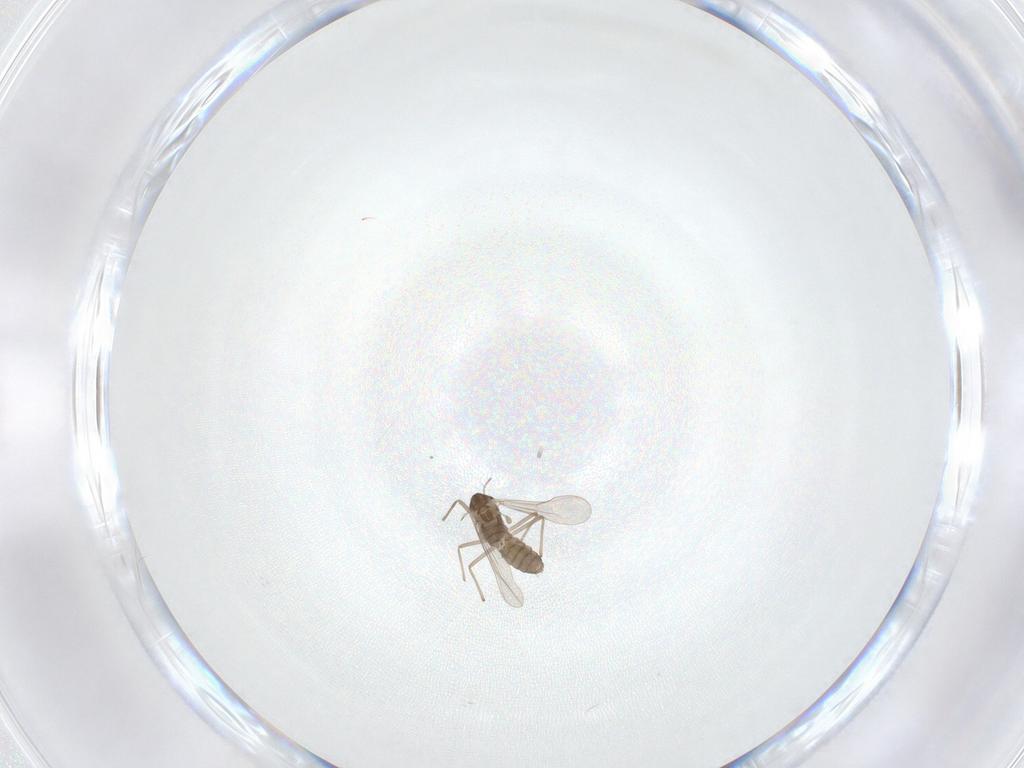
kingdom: Animalia
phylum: Arthropoda
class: Insecta
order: Diptera
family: Chironomidae
